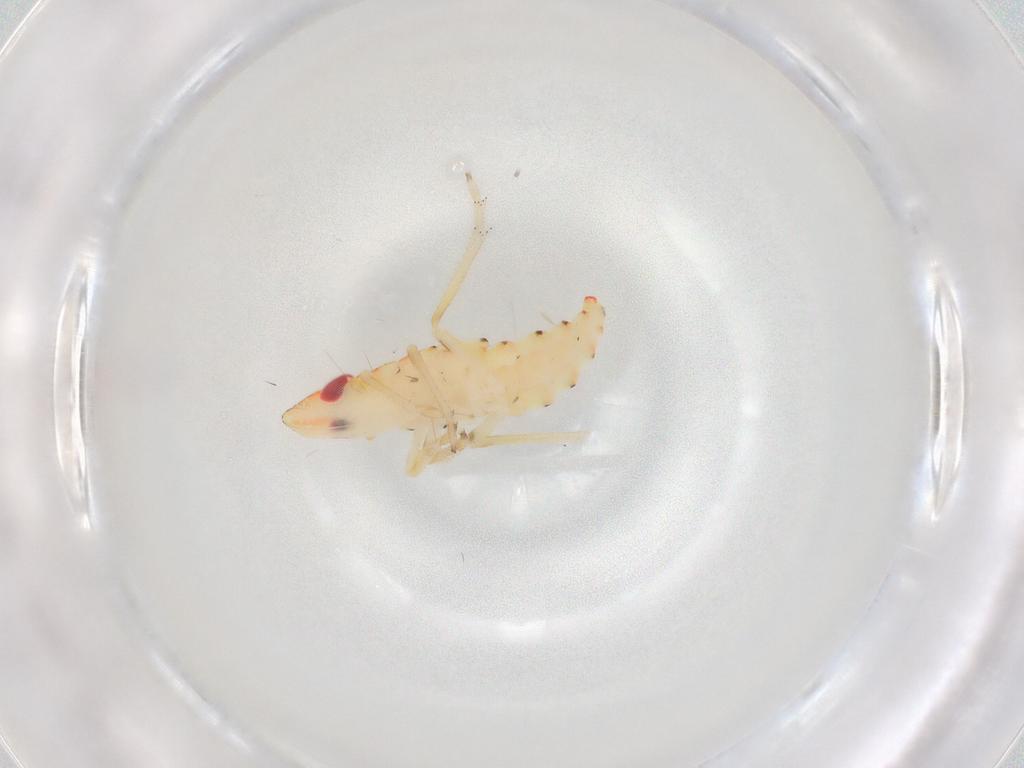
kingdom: Animalia
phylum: Arthropoda
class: Insecta
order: Hemiptera
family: Tropiduchidae
